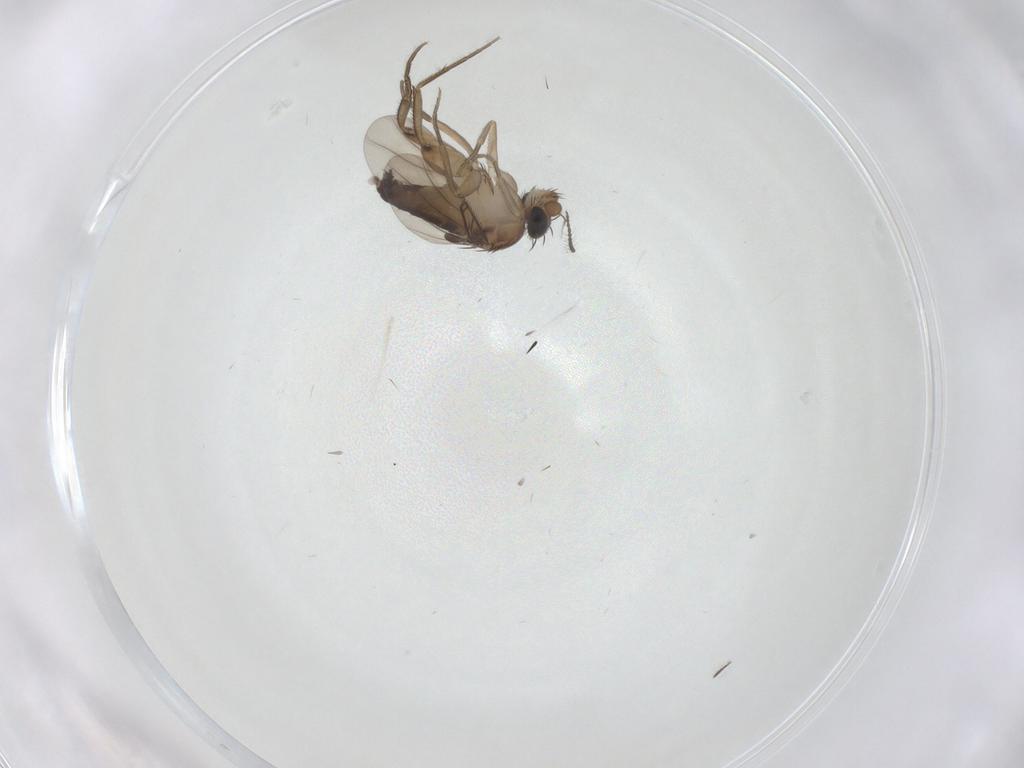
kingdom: Animalia
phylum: Arthropoda
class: Insecta
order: Diptera
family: Phoridae
